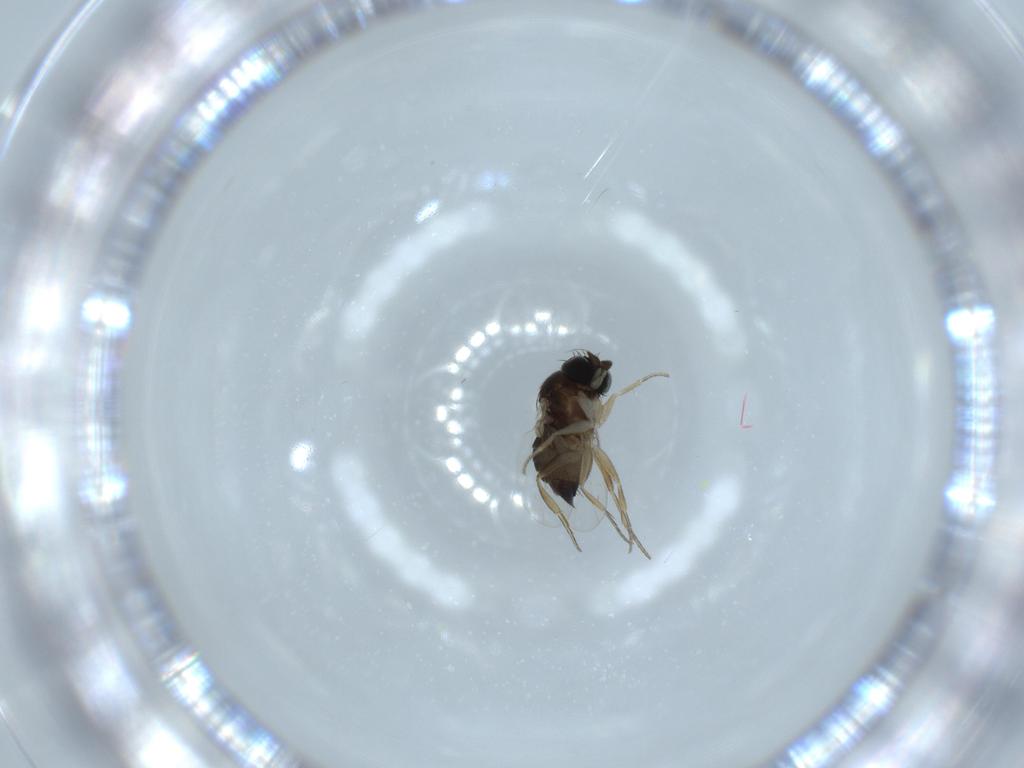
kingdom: Animalia
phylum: Arthropoda
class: Insecta
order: Diptera
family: Phoridae
